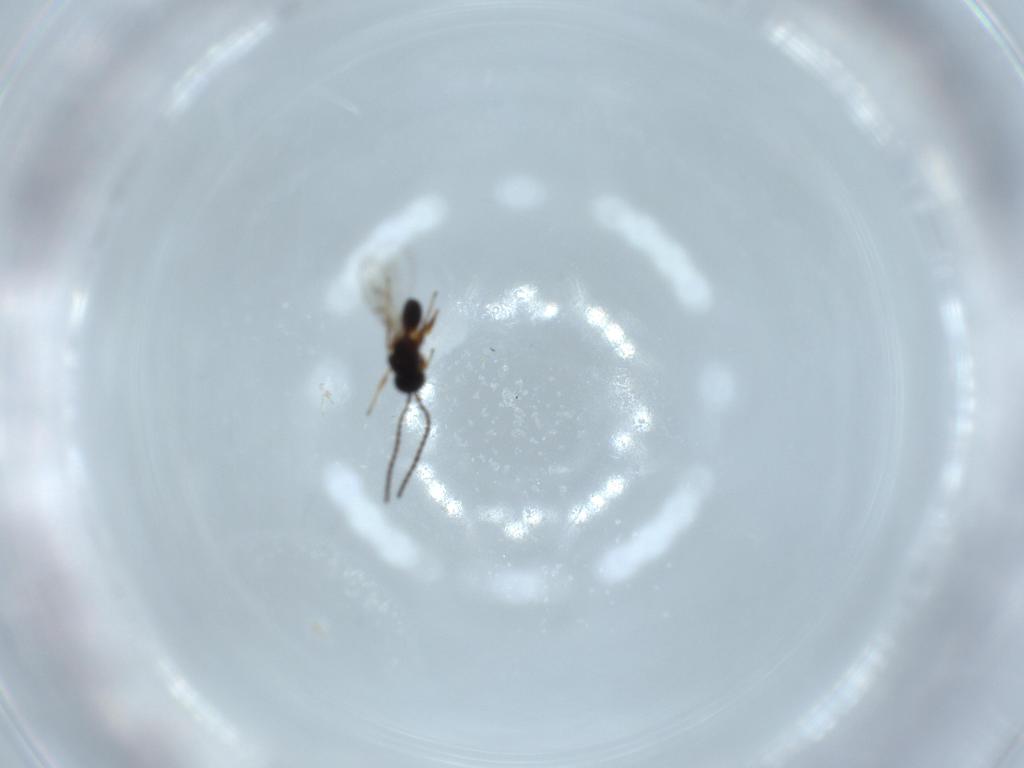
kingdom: Animalia
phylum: Arthropoda
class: Insecta
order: Hymenoptera
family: Figitidae
